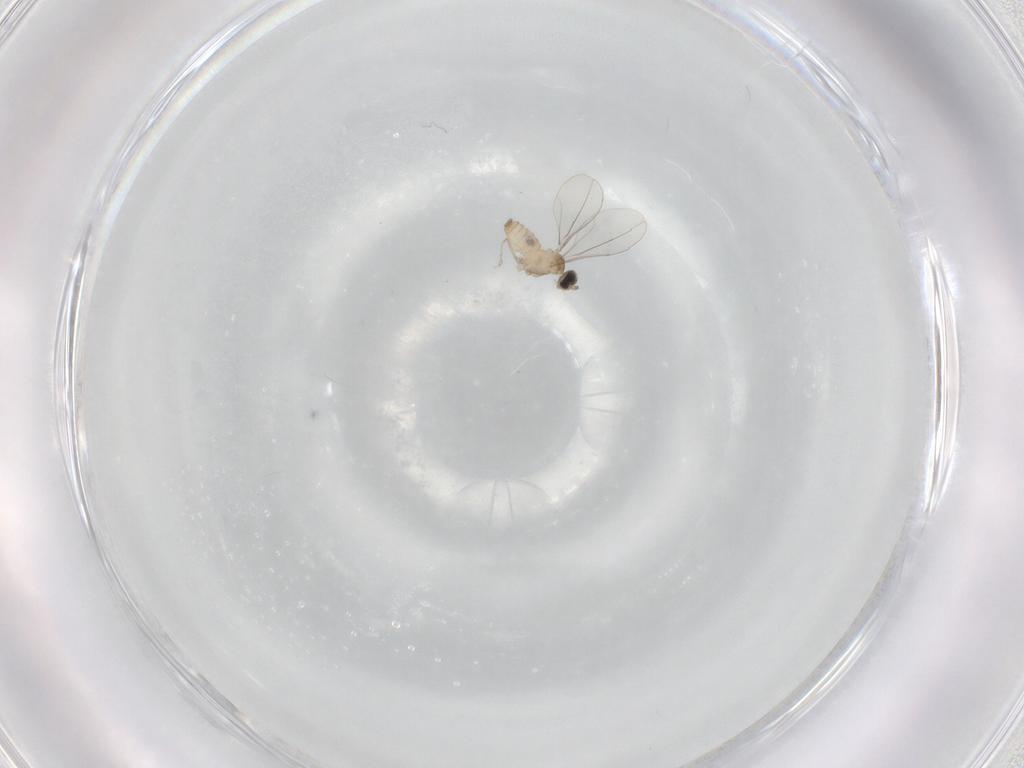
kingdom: Animalia
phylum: Arthropoda
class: Insecta
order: Diptera
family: Cecidomyiidae
